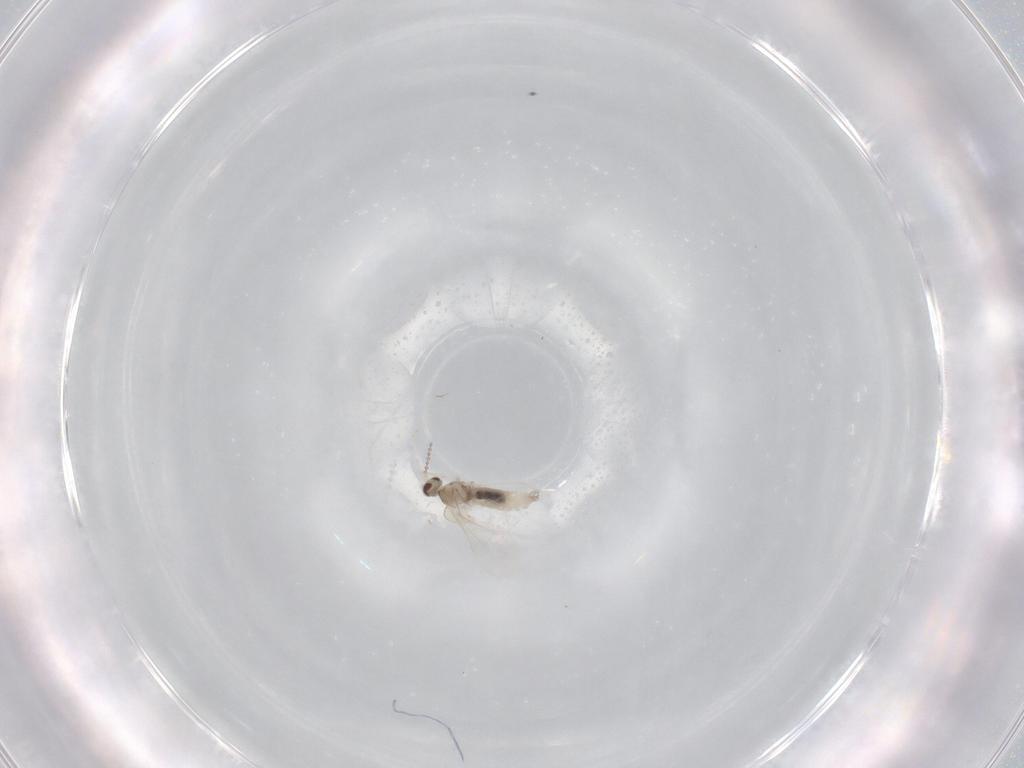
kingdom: Animalia
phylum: Arthropoda
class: Insecta
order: Diptera
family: Cecidomyiidae
